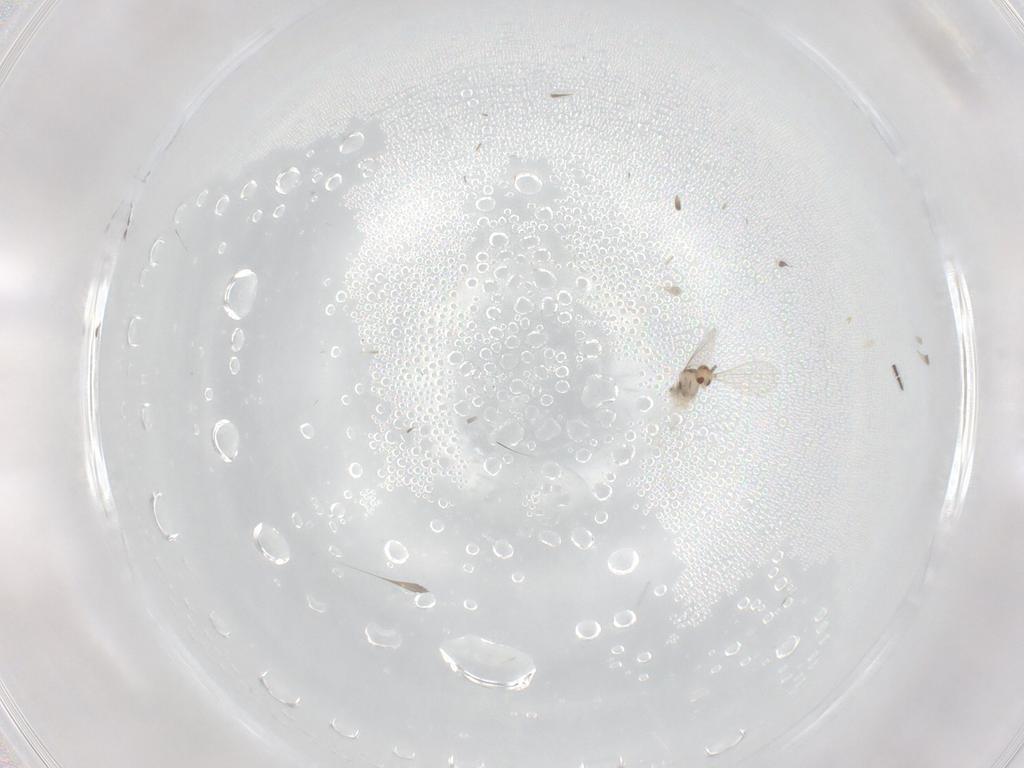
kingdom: Animalia
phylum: Arthropoda
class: Insecta
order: Diptera
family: Cecidomyiidae
